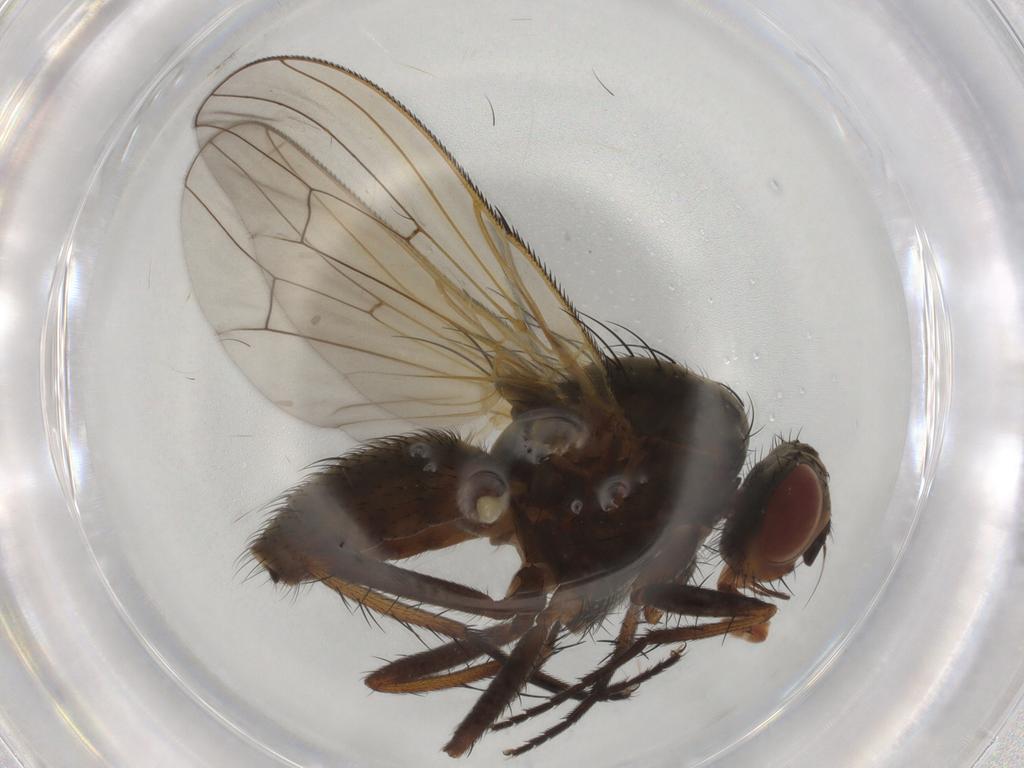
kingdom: Animalia
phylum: Arthropoda
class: Insecta
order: Diptera
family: Anthomyiidae
